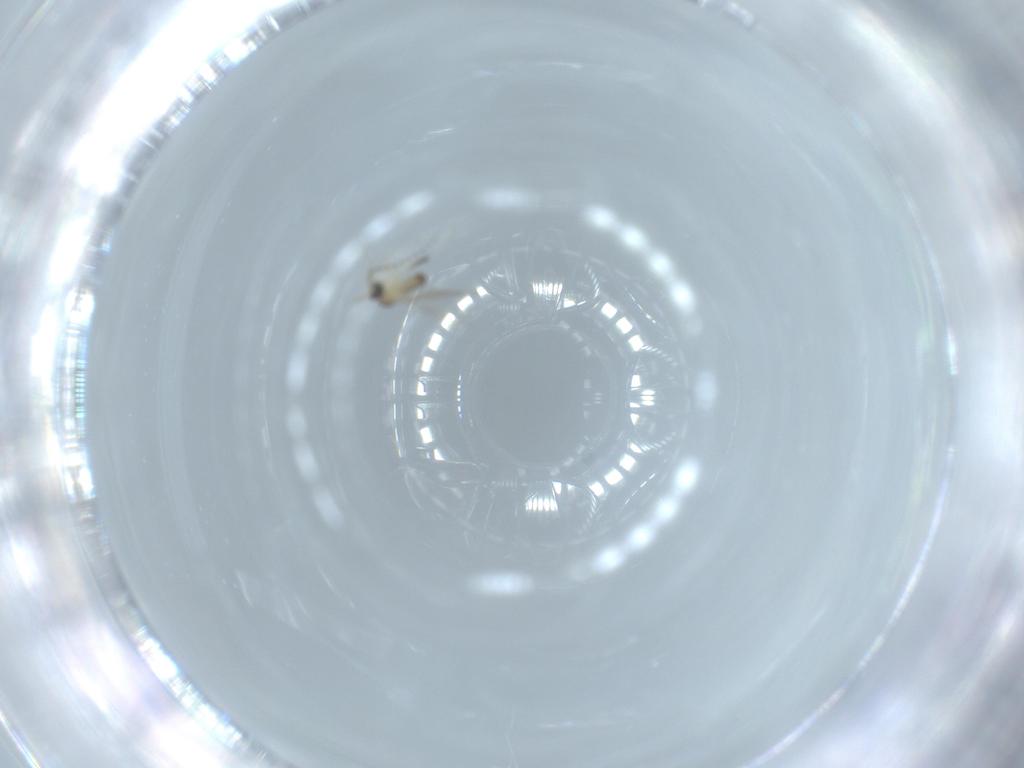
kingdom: Animalia
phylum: Arthropoda
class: Insecta
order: Diptera
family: Cecidomyiidae
